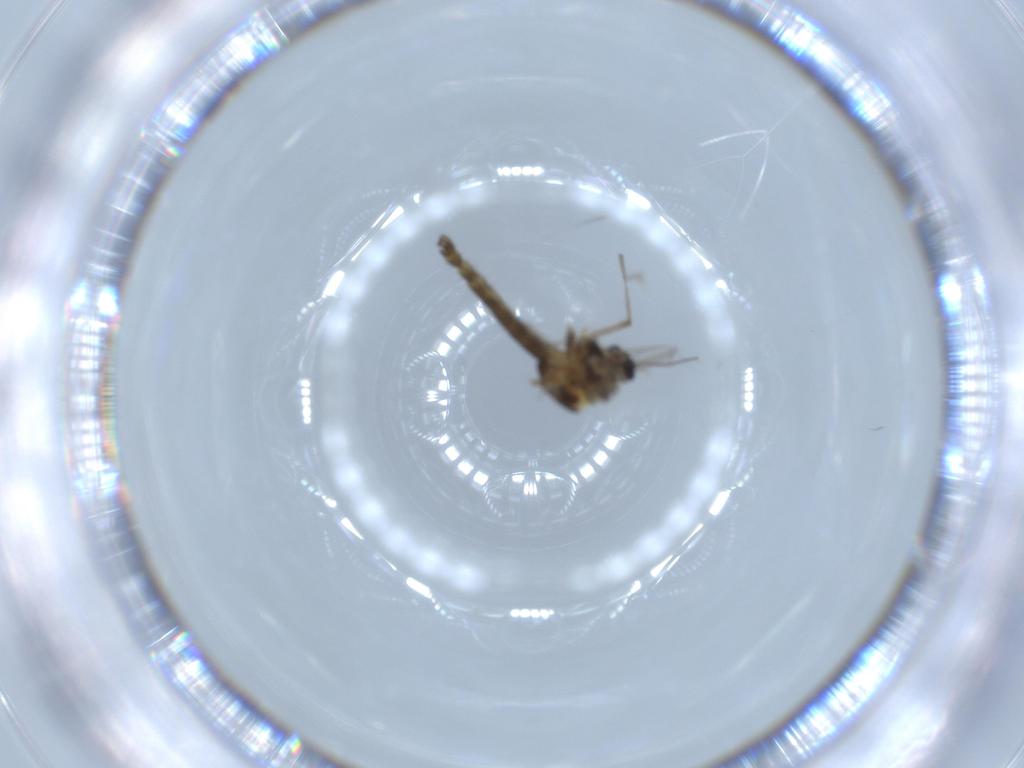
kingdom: Animalia
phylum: Arthropoda
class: Insecta
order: Diptera
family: Chironomidae
